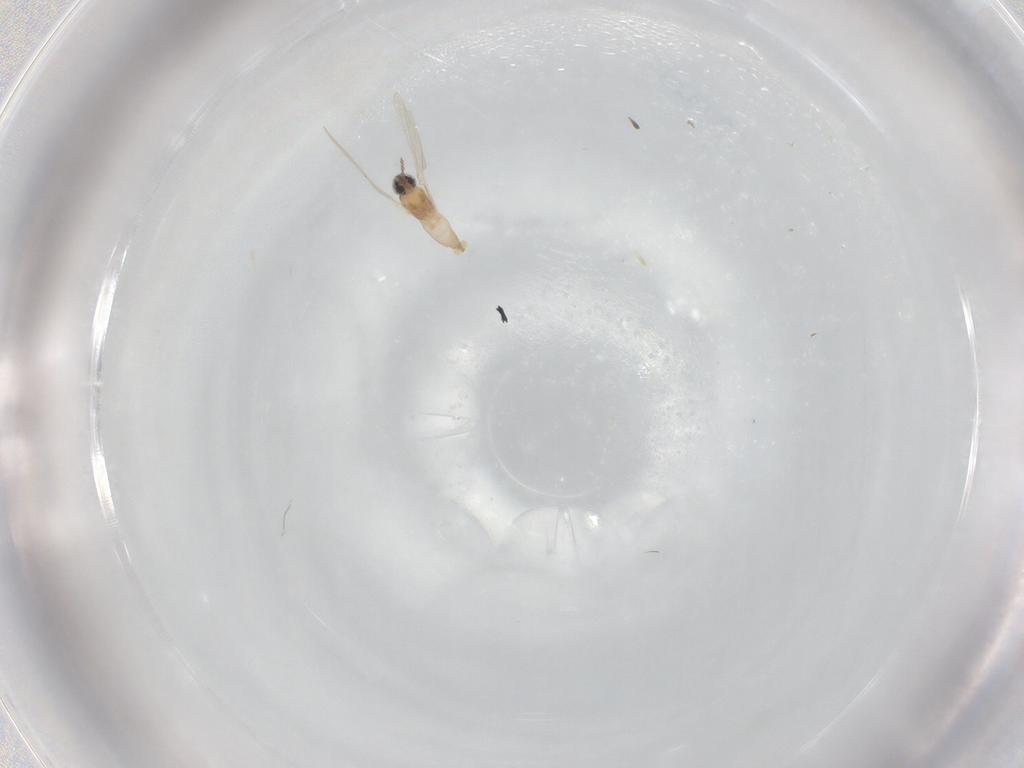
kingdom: Animalia
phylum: Arthropoda
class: Insecta
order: Diptera
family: Cecidomyiidae
